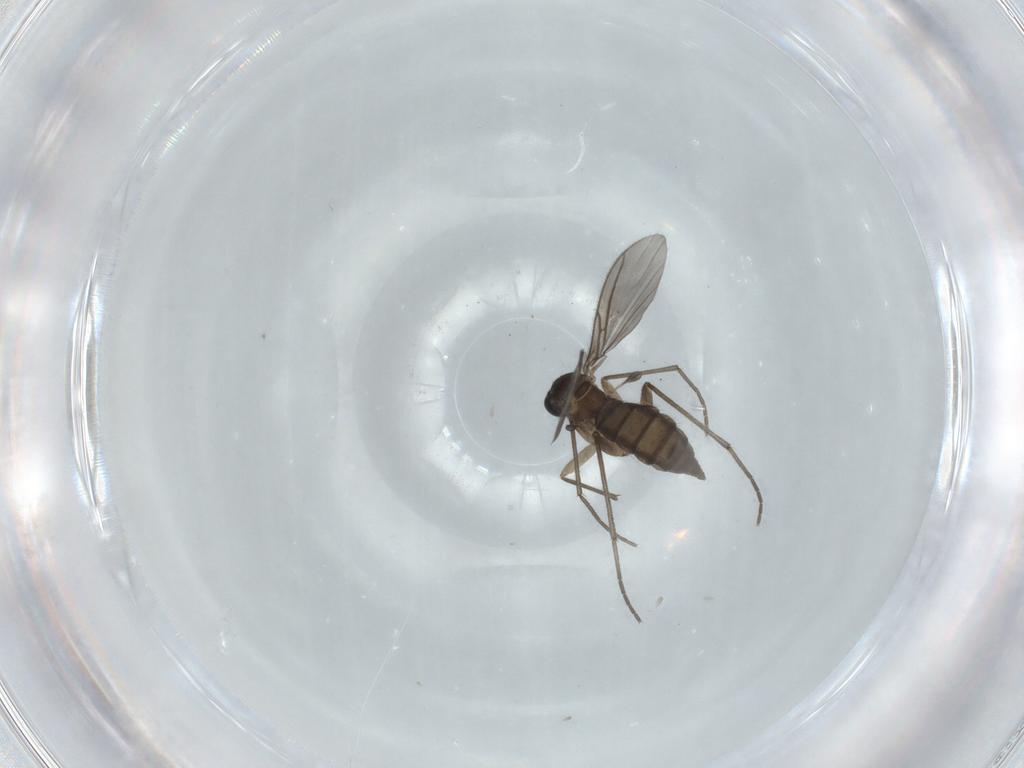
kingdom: Animalia
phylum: Arthropoda
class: Insecta
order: Diptera
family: Sciaridae
